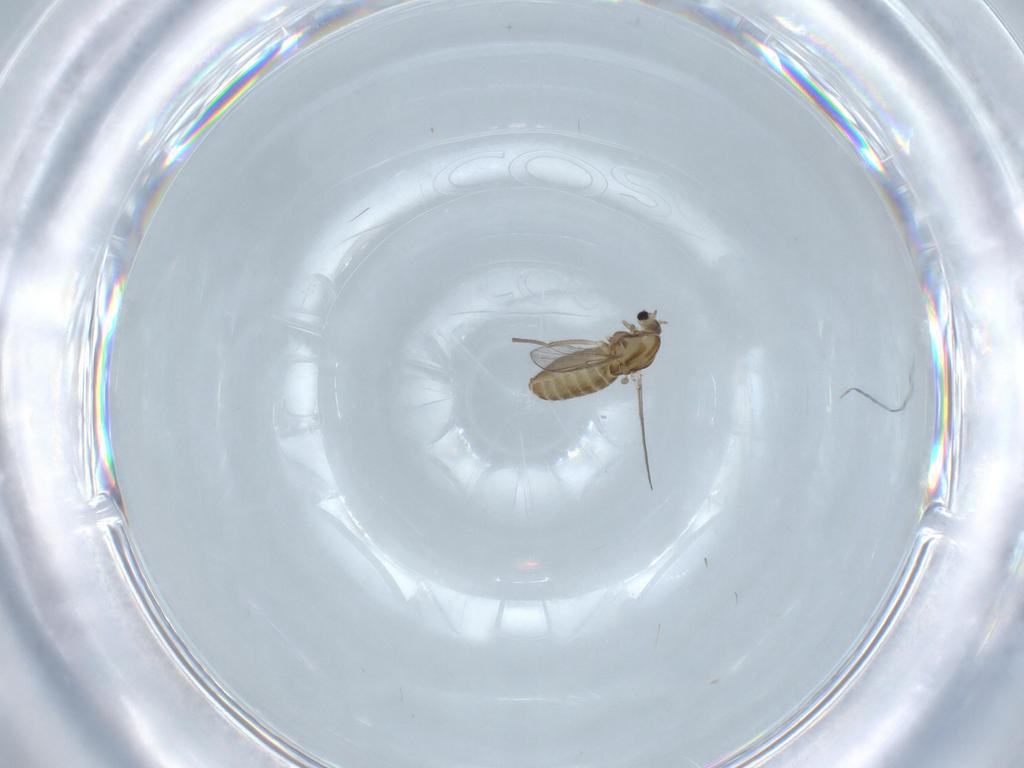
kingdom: Animalia
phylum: Arthropoda
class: Insecta
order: Diptera
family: Chironomidae
